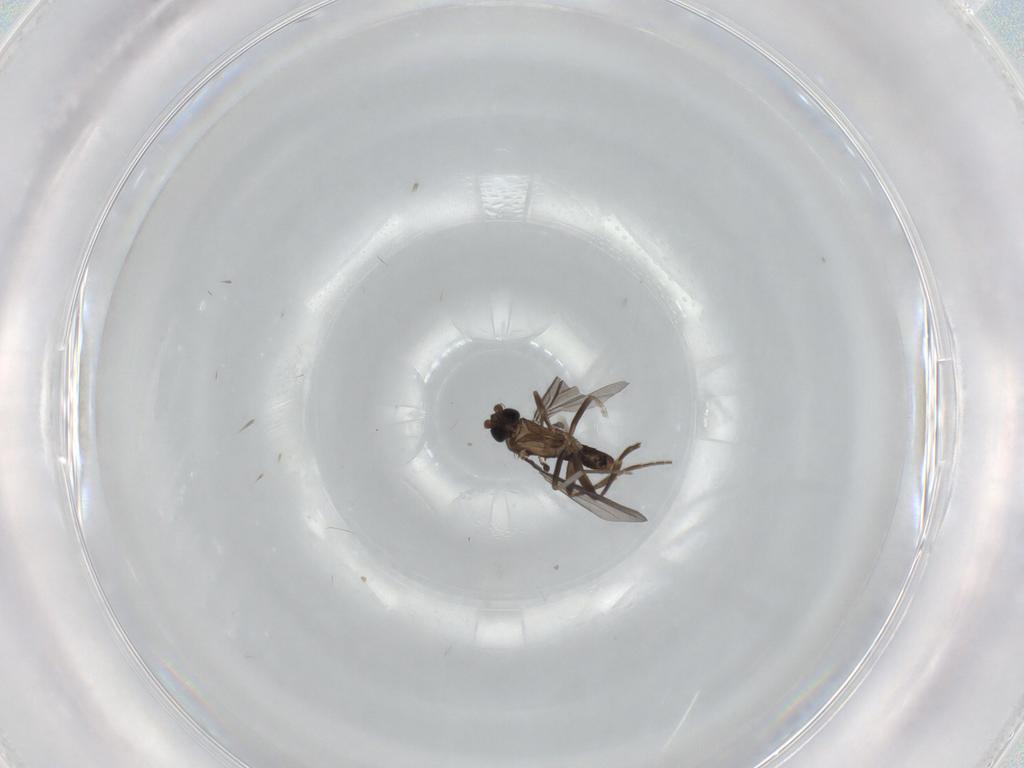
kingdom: Animalia
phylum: Arthropoda
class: Insecta
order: Diptera
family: Phoridae
